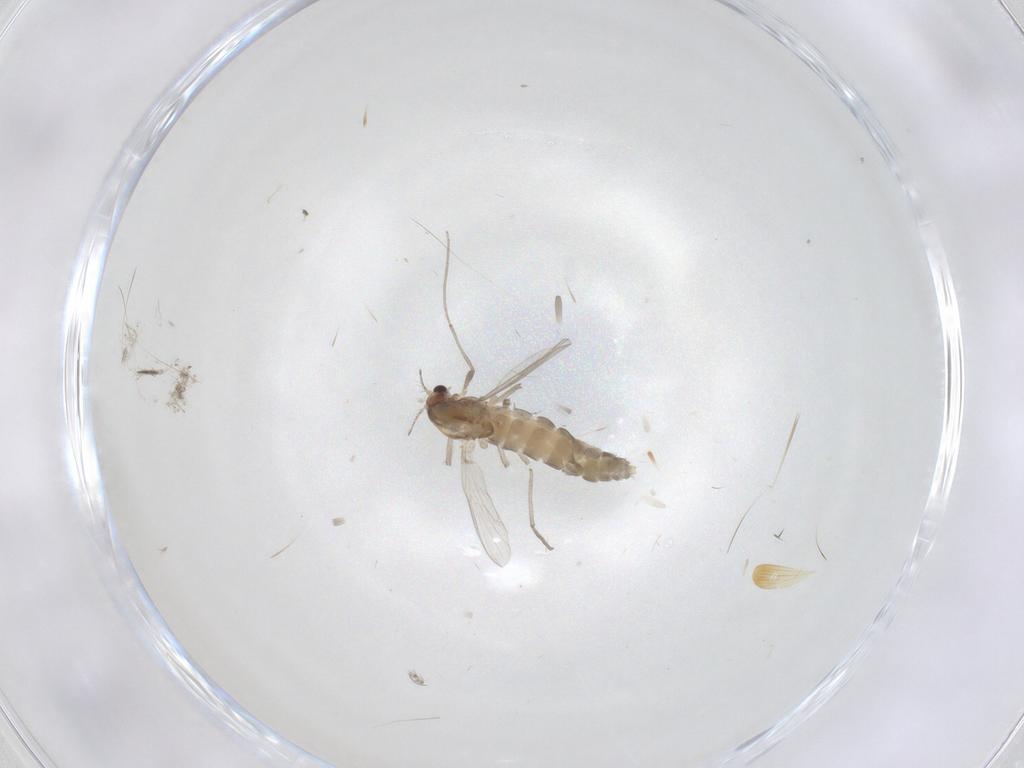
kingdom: Animalia
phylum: Arthropoda
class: Insecta
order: Diptera
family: Chironomidae
